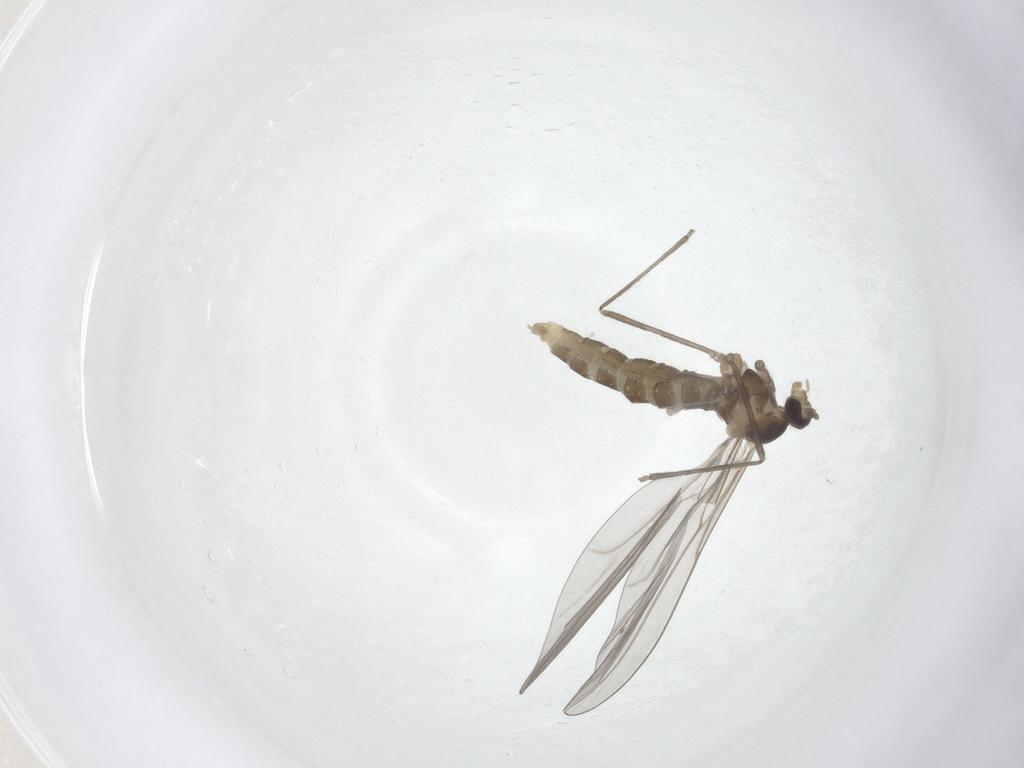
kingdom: Animalia
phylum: Arthropoda
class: Insecta
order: Diptera
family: Cecidomyiidae
